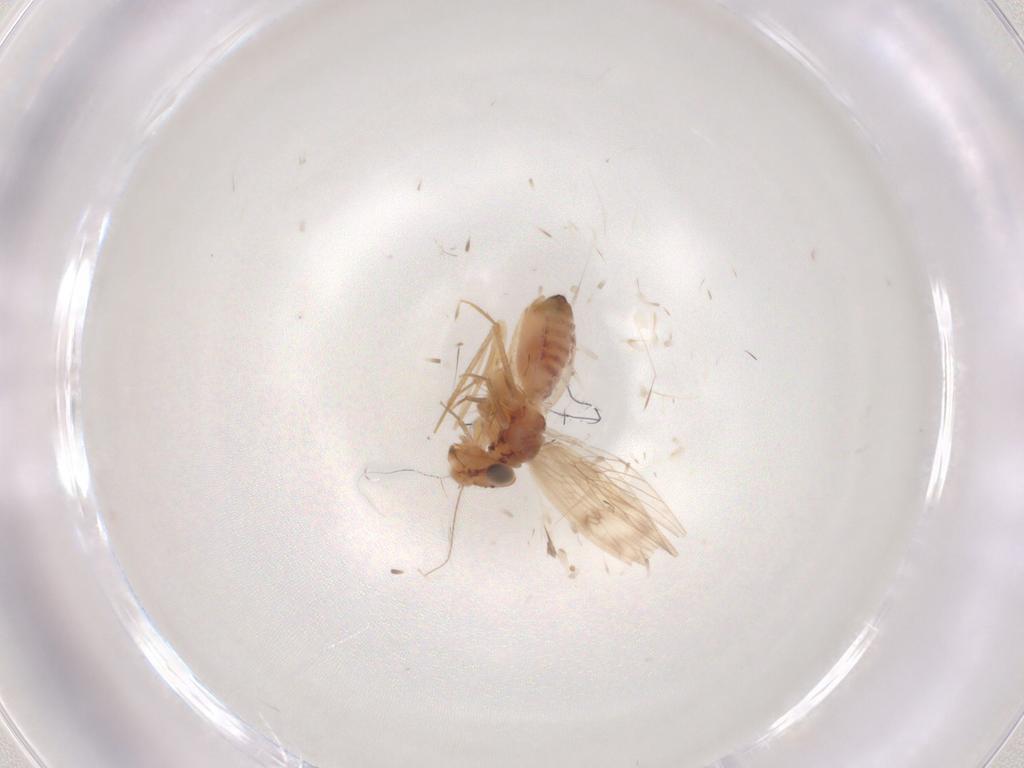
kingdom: Animalia
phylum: Arthropoda
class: Insecta
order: Psocodea
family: Lepidopsocidae
